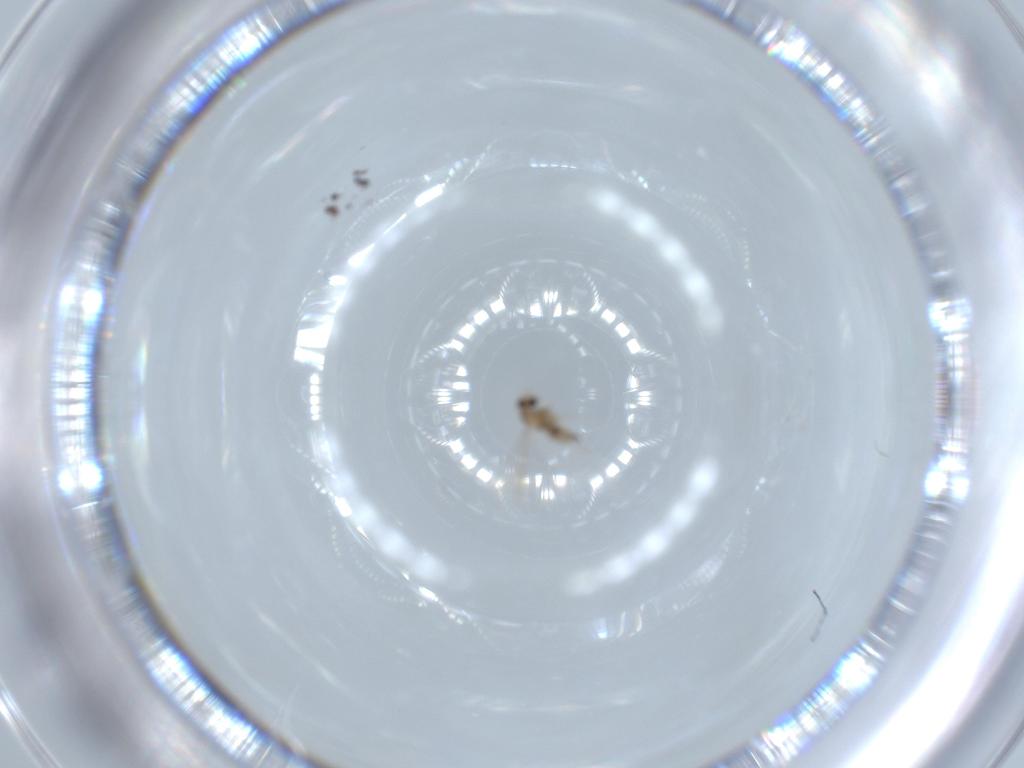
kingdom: Animalia
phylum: Arthropoda
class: Insecta
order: Diptera
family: Cecidomyiidae
